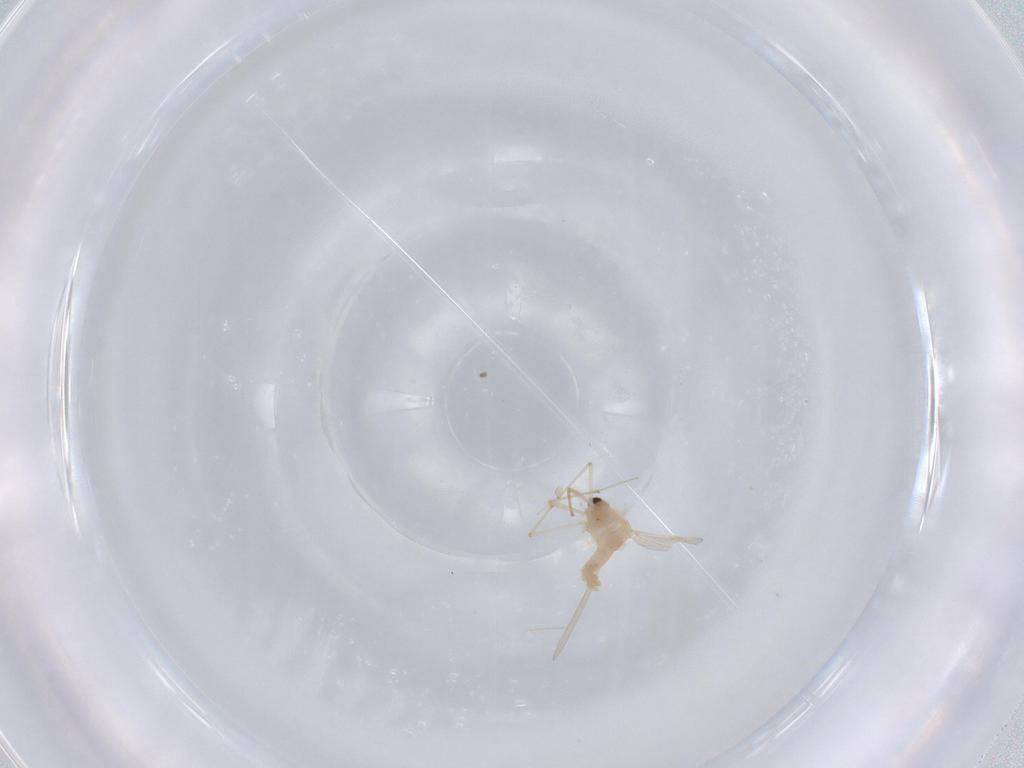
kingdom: Animalia
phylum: Arthropoda
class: Insecta
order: Diptera
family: Chironomidae
